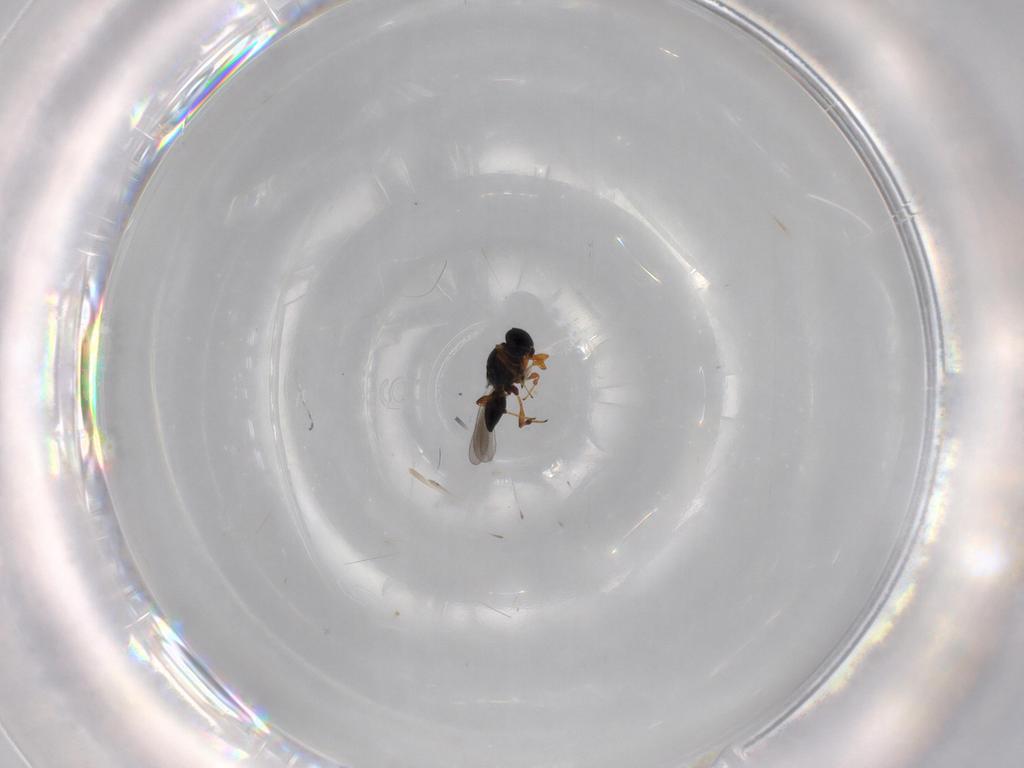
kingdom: Animalia
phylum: Arthropoda
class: Insecta
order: Hymenoptera
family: Platygastridae
